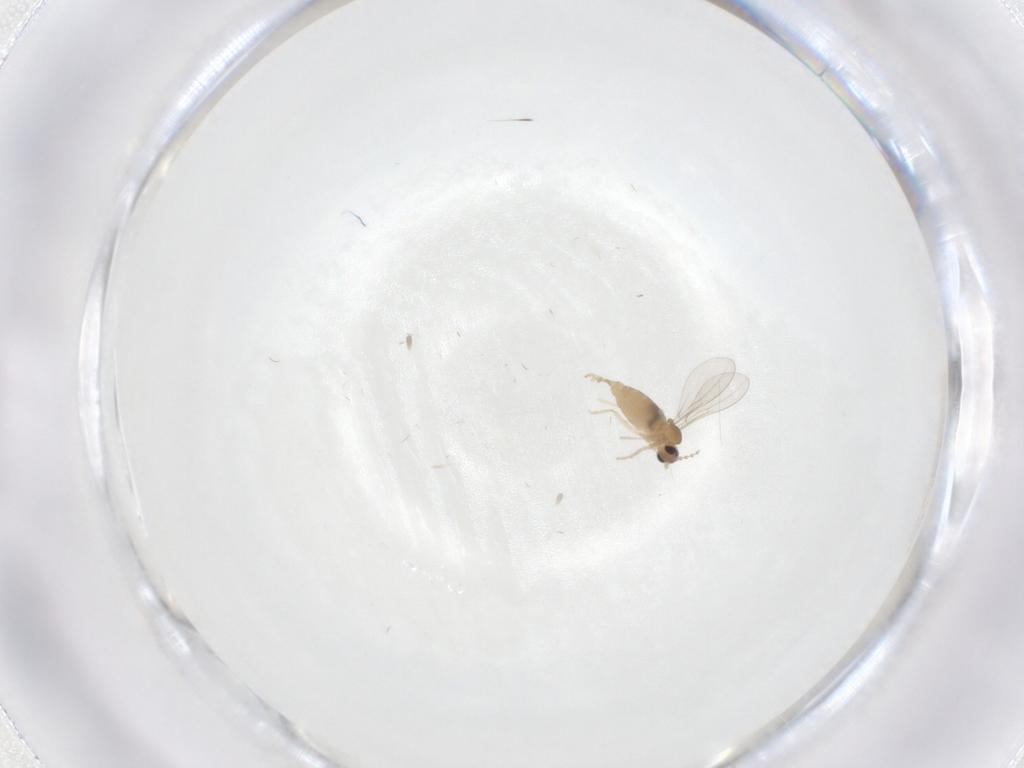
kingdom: Animalia
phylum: Arthropoda
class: Insecta
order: Diptera
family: Cecidomyiidae
